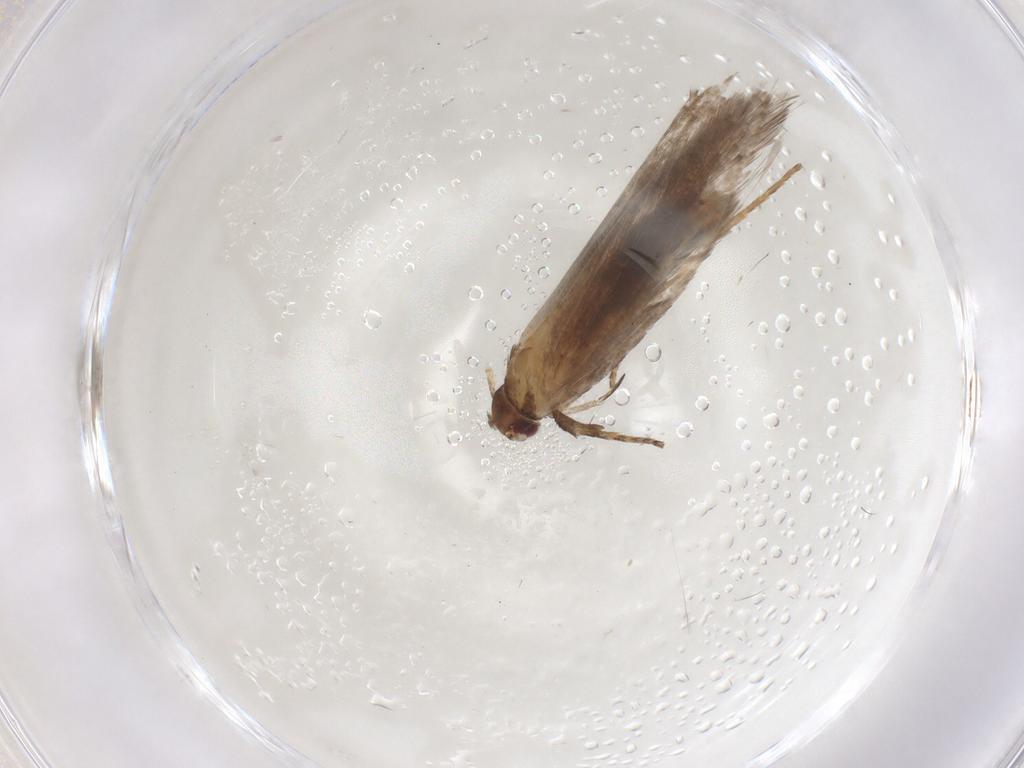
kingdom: Animalia
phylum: Arthropoda
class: Insecta
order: Lepidoptera
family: Gelechiidae
